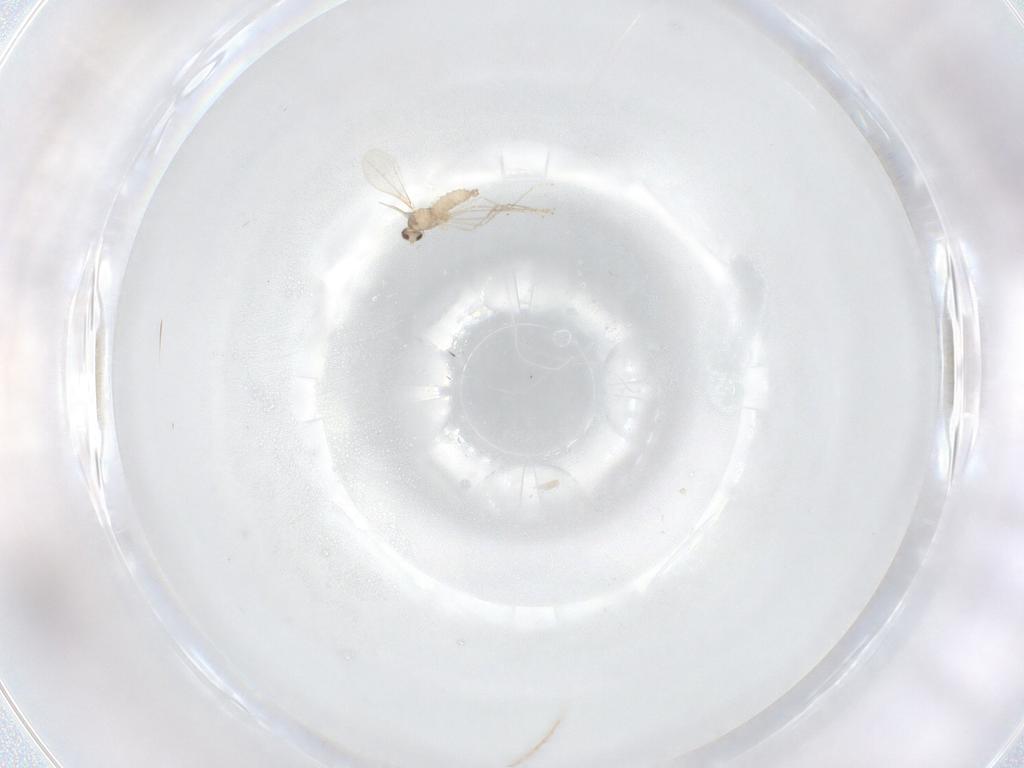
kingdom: Animalia
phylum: Arthropoda
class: Insecta
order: Diptera
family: Cecidomyiidae
